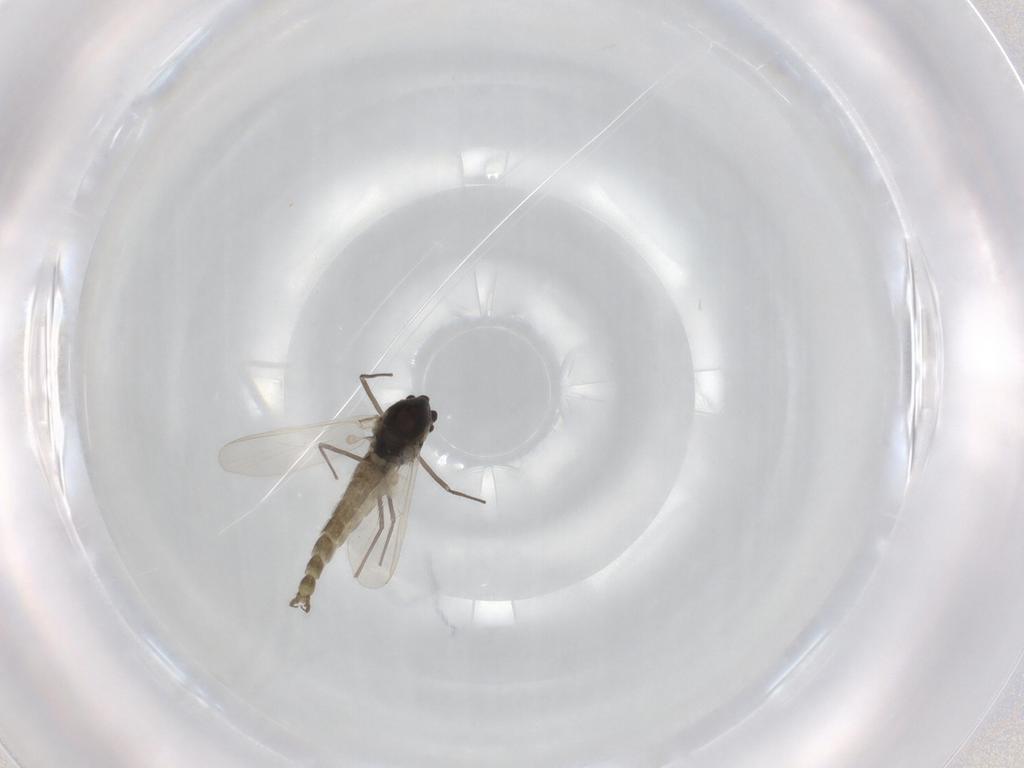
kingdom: Animalia
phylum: Arthropoda
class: Insecta
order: Diptera
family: Chironomidae
